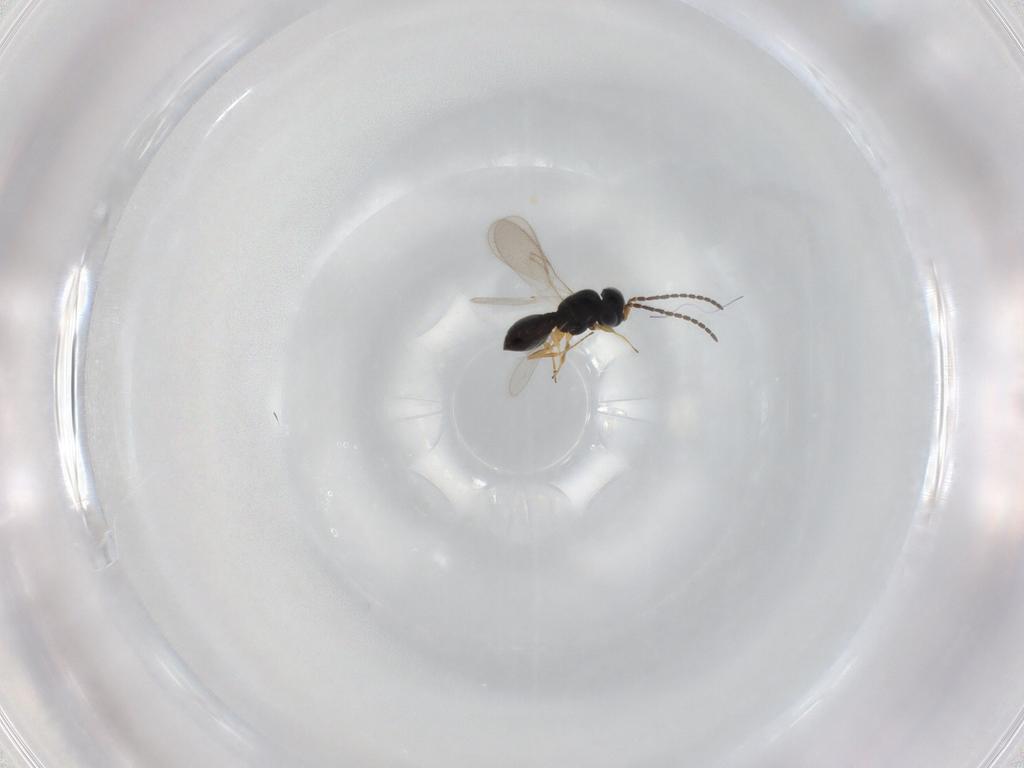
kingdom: Animalia
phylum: Arthropoda
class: Insecta
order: Hymenoptera
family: Scelionidae
